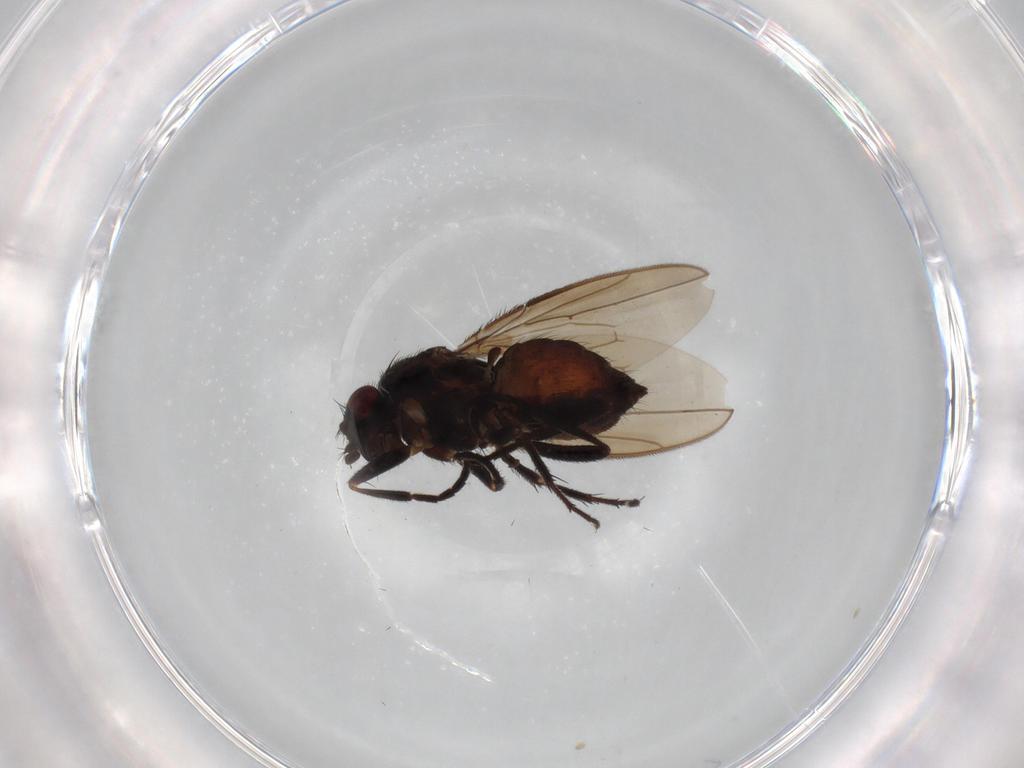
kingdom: Animalia
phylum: Arthropoda
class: Insecta
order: Diptera
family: Sphaeroceridae
